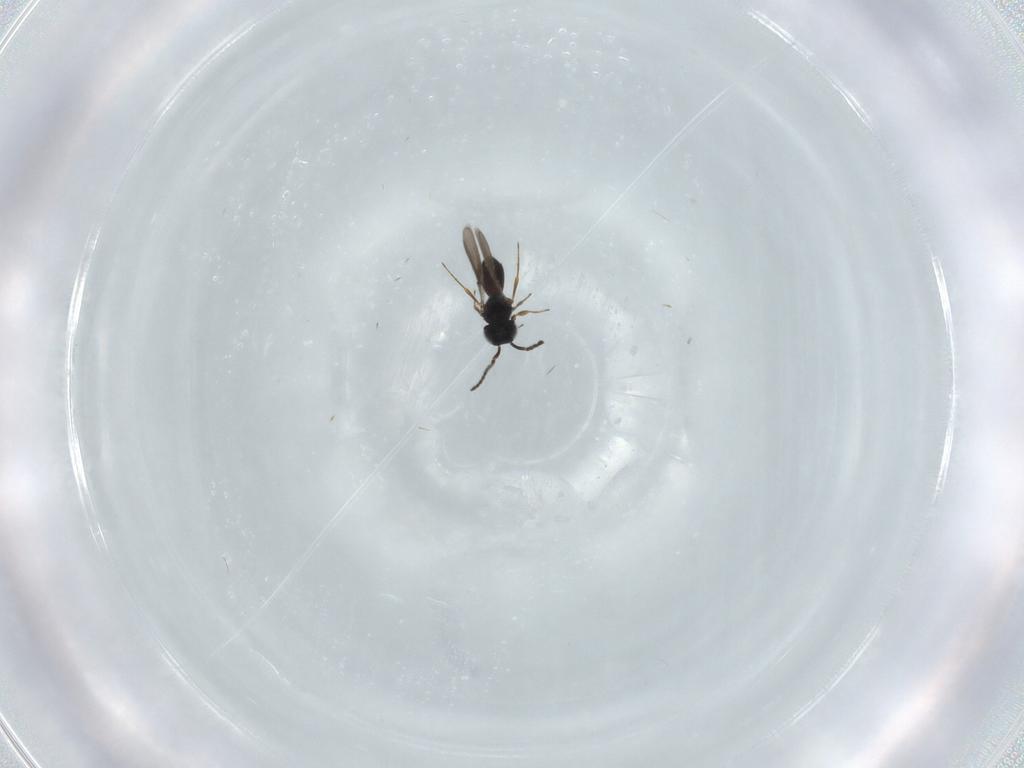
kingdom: Animalia
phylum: Arthropoda
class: Insecta
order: Hymenoptera
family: Scelionidae
